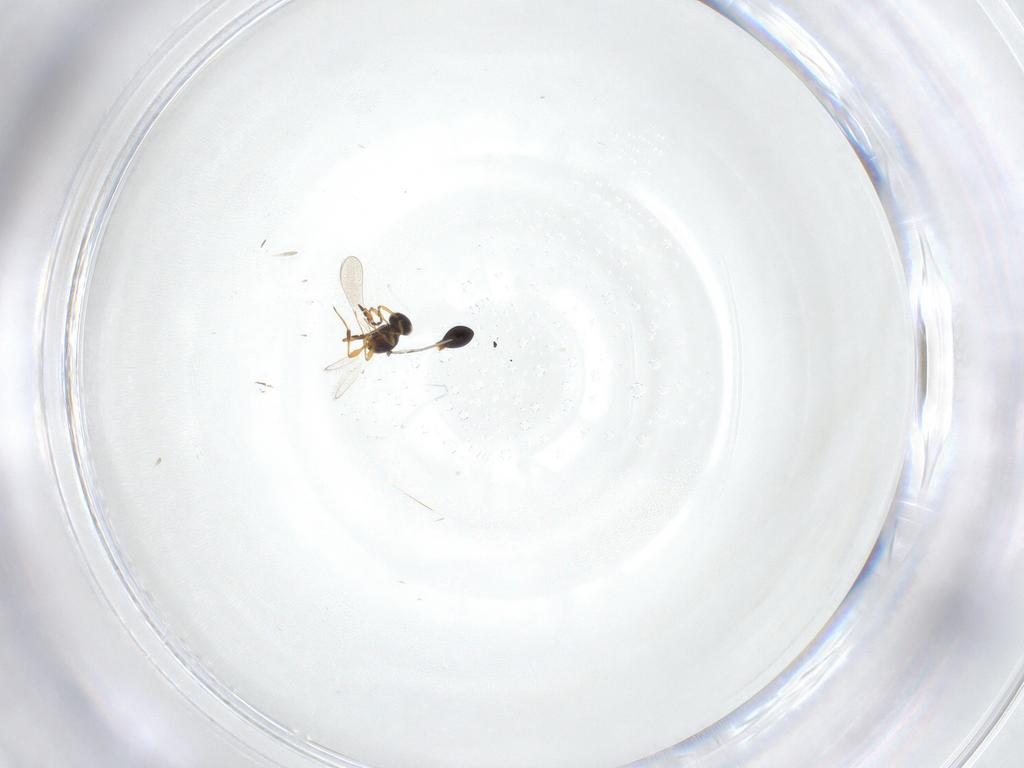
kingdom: Animalia
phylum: Arthropoda
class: Insecta
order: Hymenoptera
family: Platygastridae
